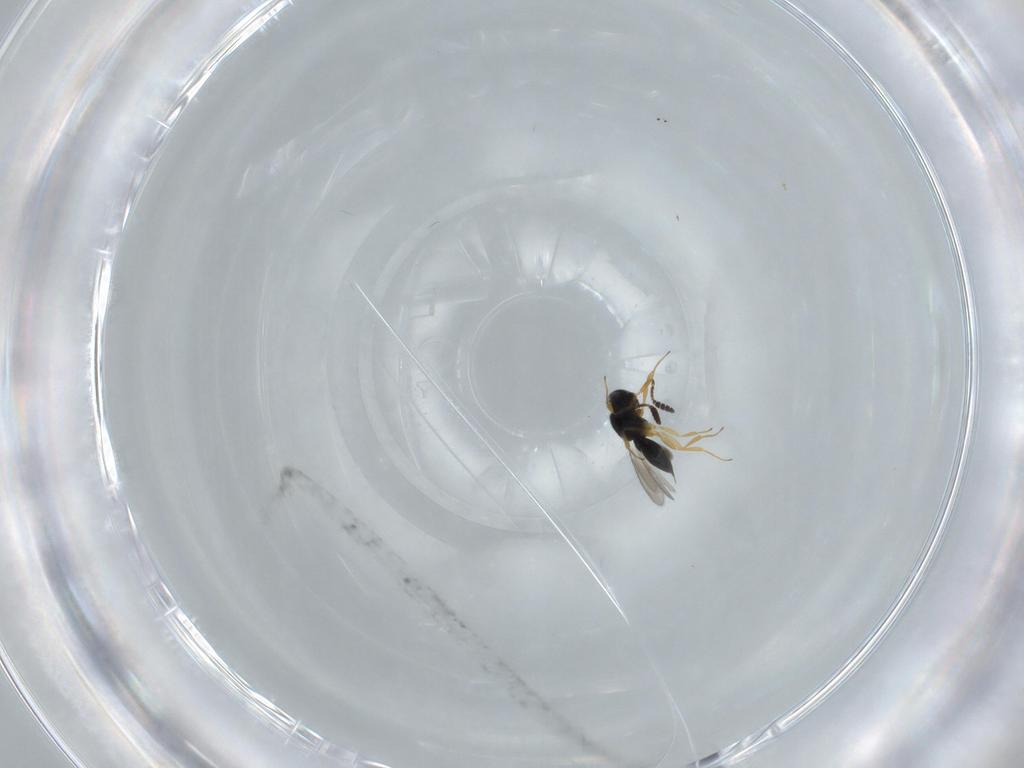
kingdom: Animalia
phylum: Arthropoda
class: Insecta
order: Hymenoptera
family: Scelionidae
